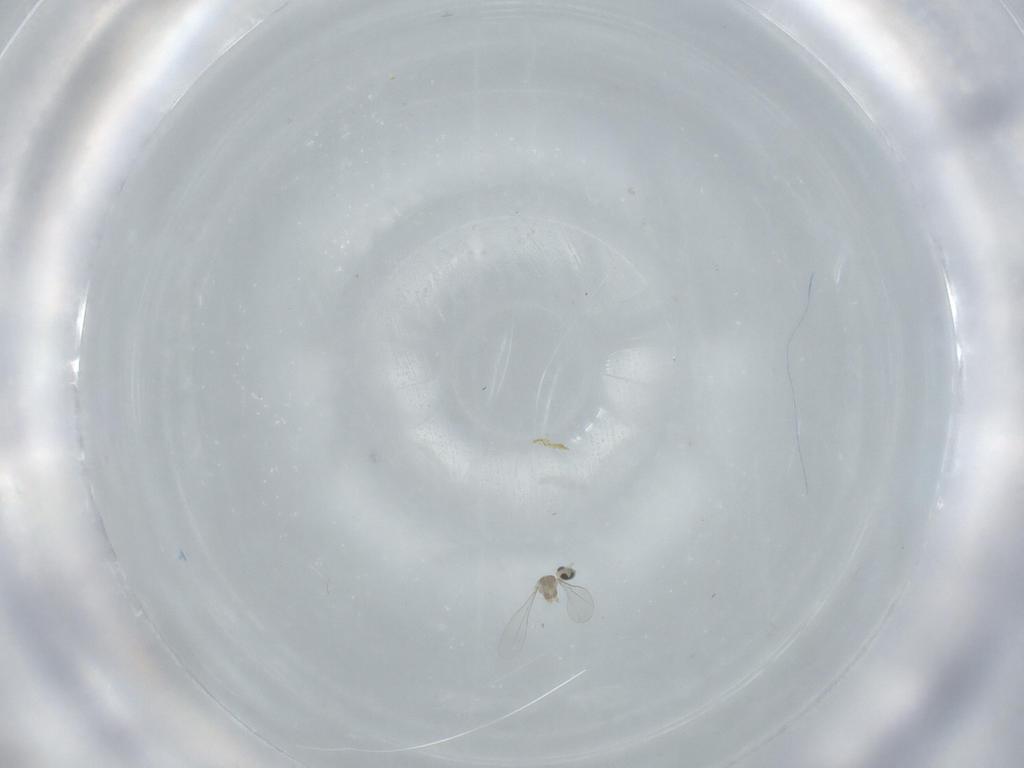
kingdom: Animalia
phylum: Arthropoda
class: Insecta
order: Diptera
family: Cecidomyiidae
